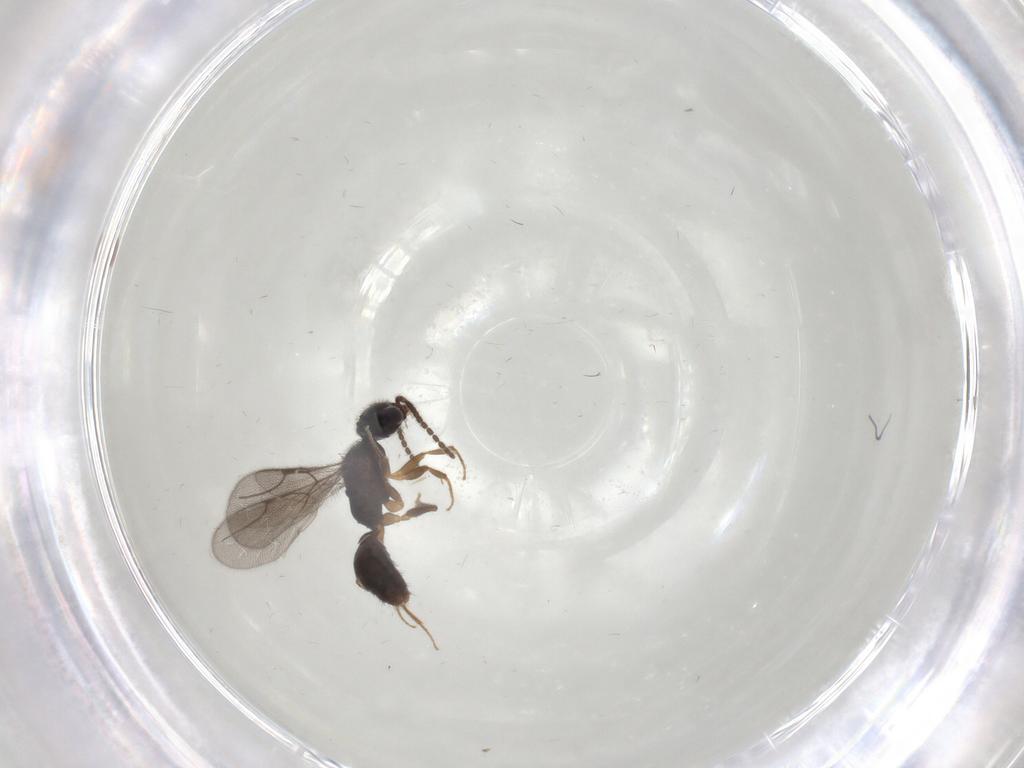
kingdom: Animalia
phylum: Arthropoda
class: Insecta
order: Hymenoptera
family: Bethylidae
